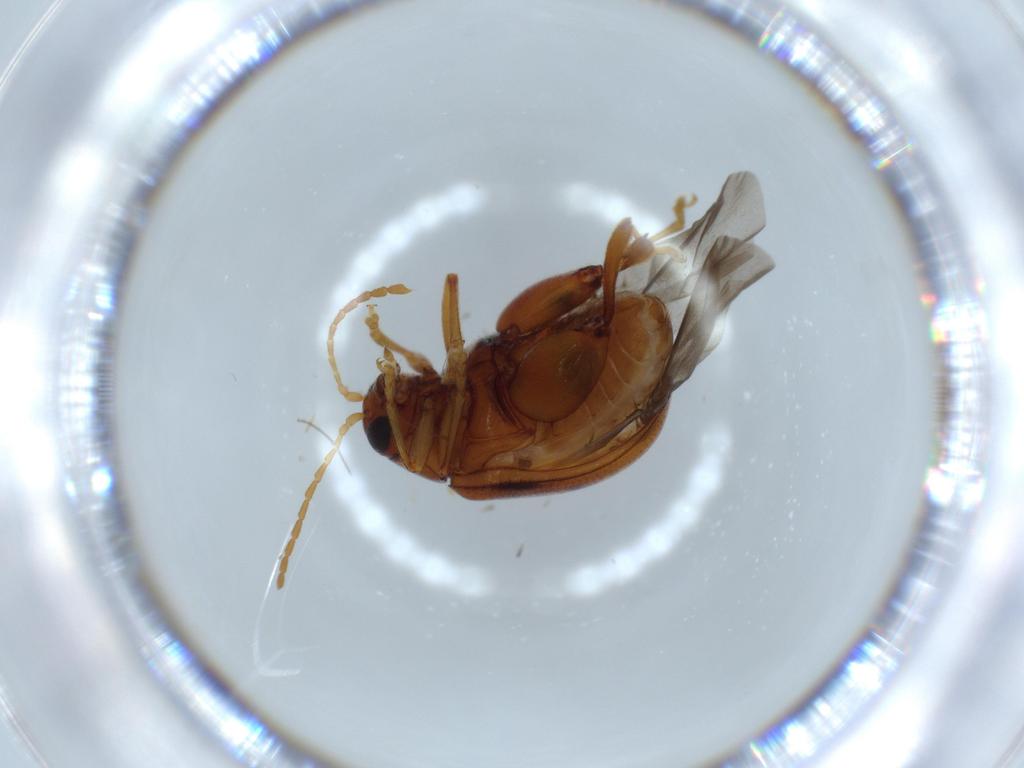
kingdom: Animalia
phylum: Arthropoda
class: Insecta
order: Coleoptera
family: Chrysomelidae
